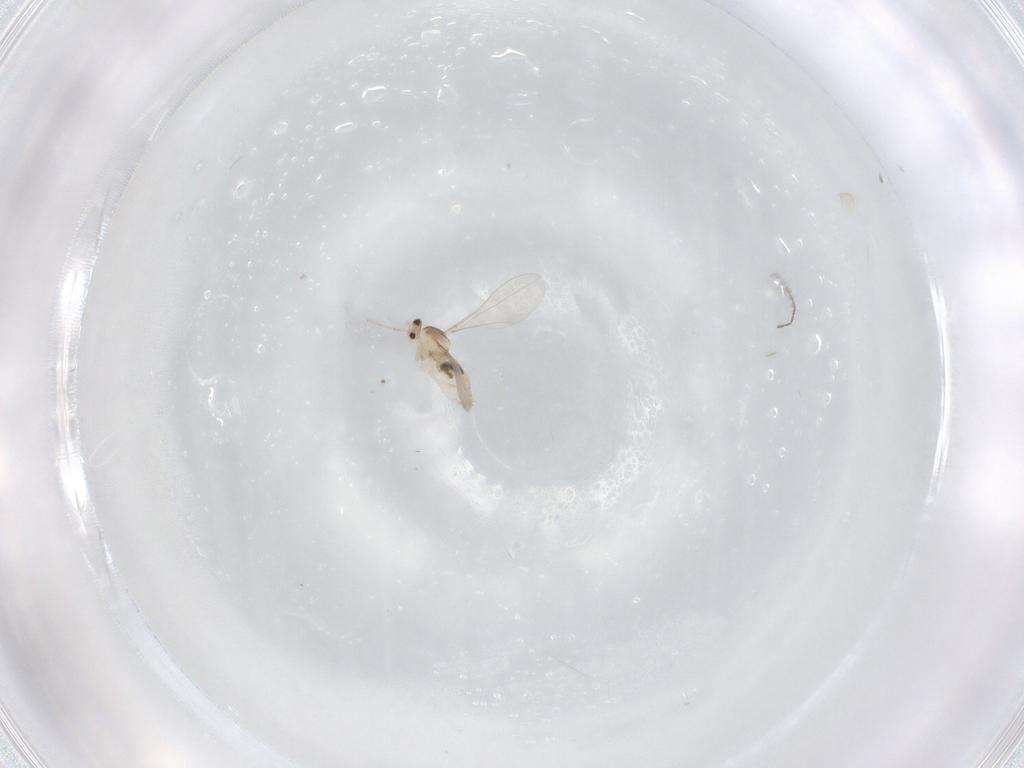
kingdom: Animalia
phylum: Arthropoda
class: Insecta
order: Diptera
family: Cecidomyiidae
